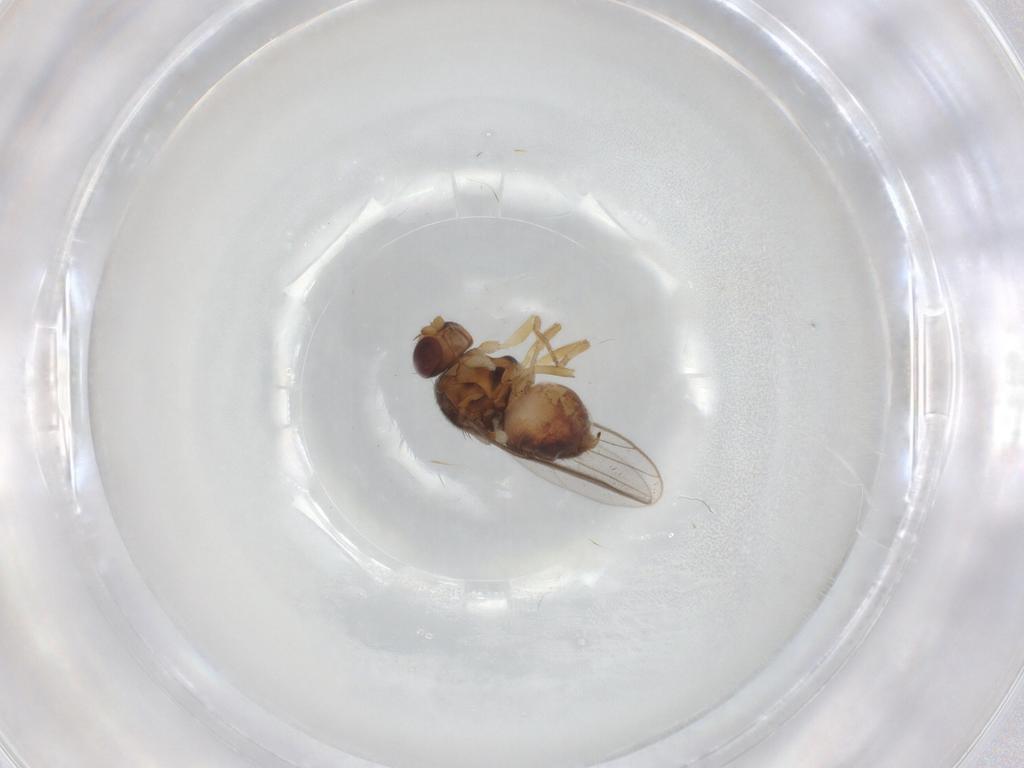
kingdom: Animalia
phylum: Arthropoda
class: Insecta
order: Diptera
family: Chloropidae
